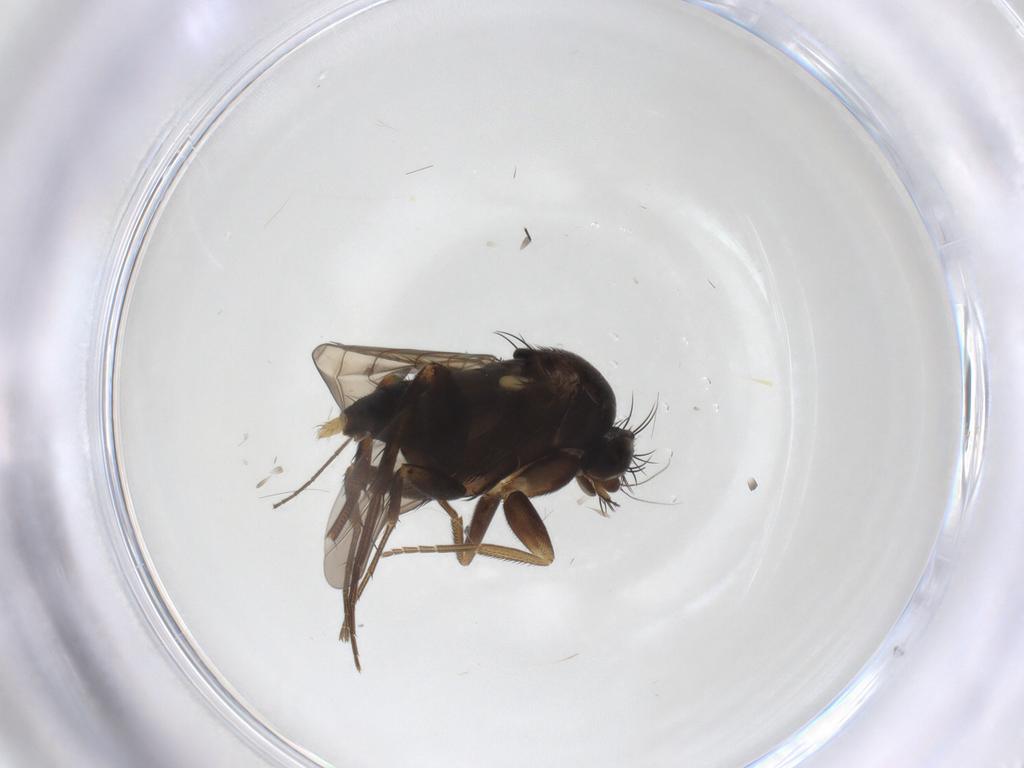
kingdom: Animalia
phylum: Arthropoda
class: Insecta
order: Diptera
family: Phoridae
